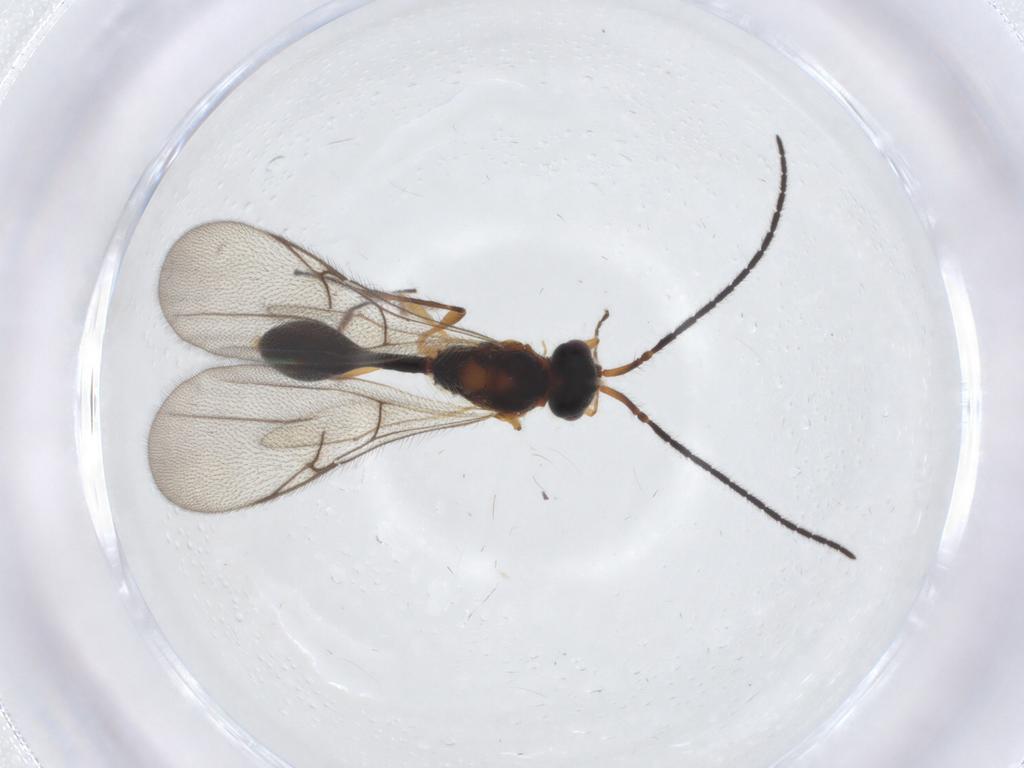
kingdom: Animalia
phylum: Arthropoda
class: Insecta
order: Hymenoptera
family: Diapriidae
